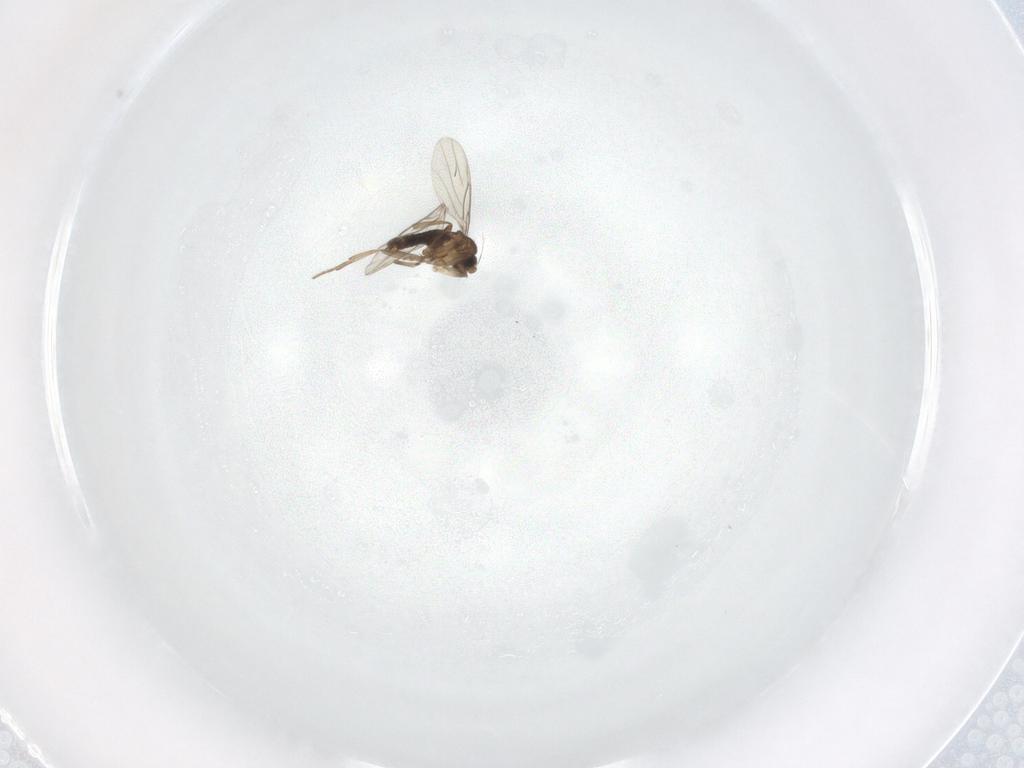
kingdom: Animalia
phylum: Arthropoda
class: Insecta
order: Diptera
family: Phoridae
